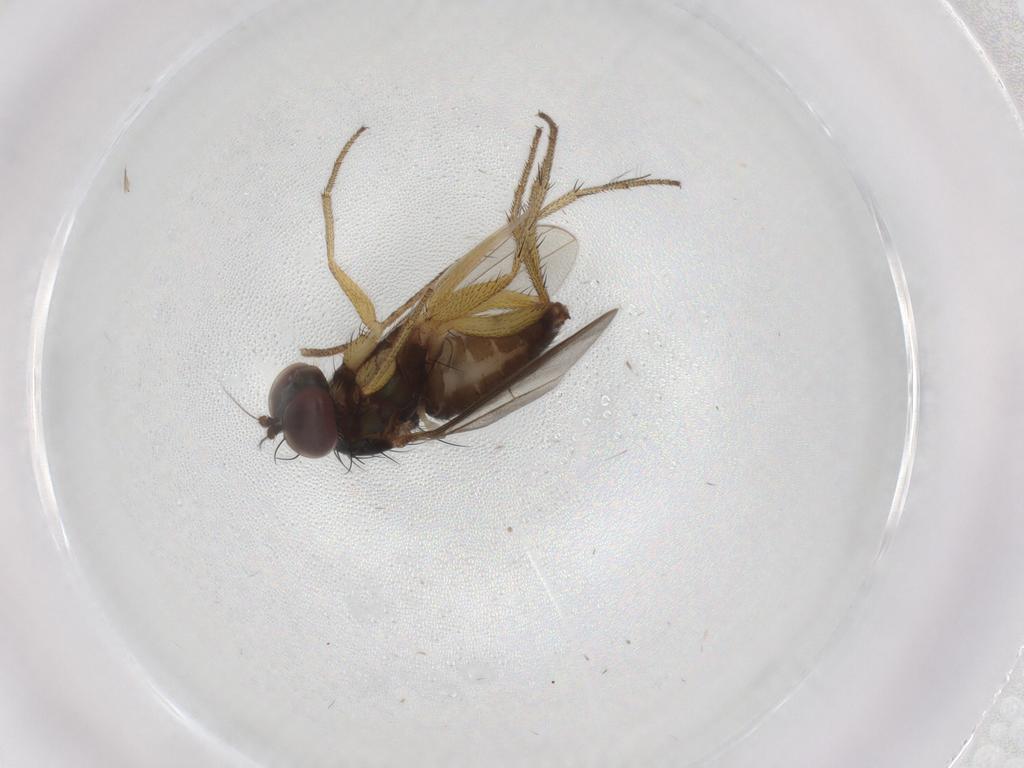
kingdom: Animalia
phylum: Arthropoda
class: Insecta
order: Diptera
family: Cecidomyiidae
